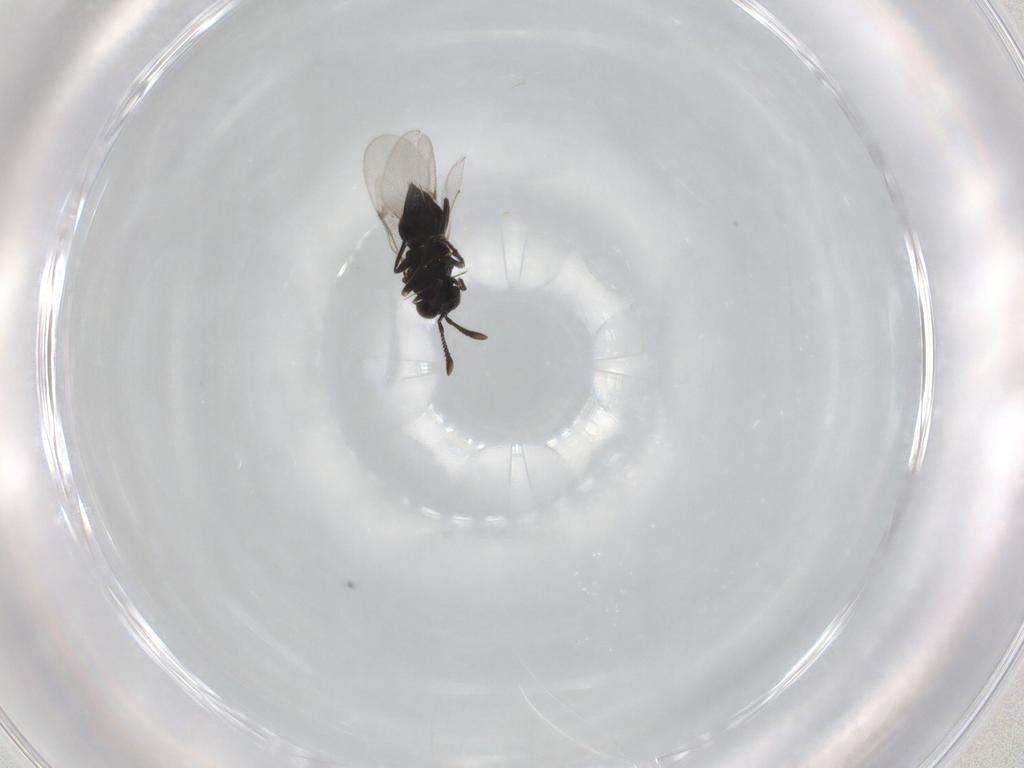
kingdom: Animalia
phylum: Arthropoda
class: Insecta
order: Hymenoptera
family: Encyrtidae
